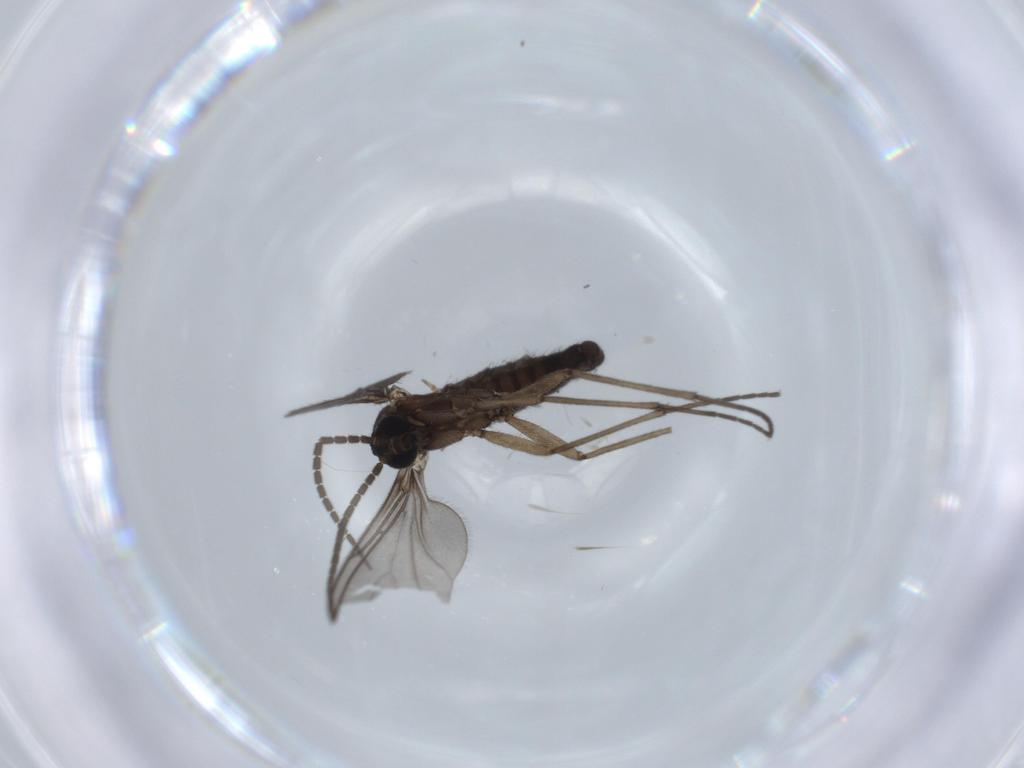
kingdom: Animalia
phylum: Arthropoda
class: Insecta
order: Diptera
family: Sciaridae
